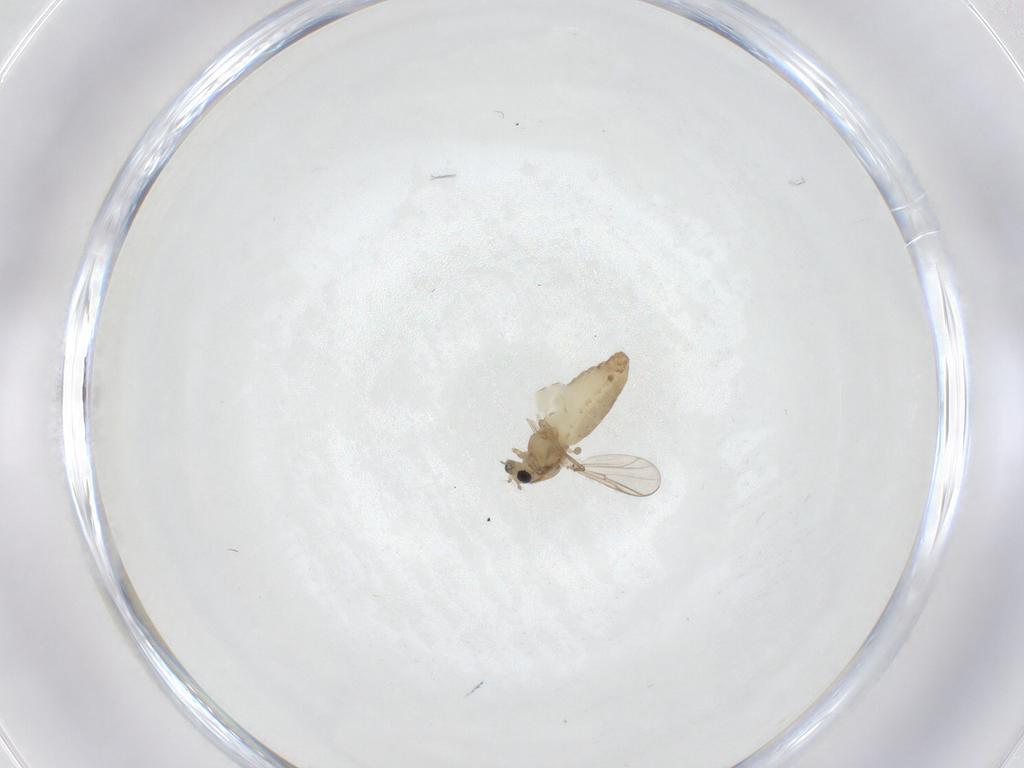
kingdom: Animalia
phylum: Arthropoda
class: Insecta
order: Diptera
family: Chironomidae
